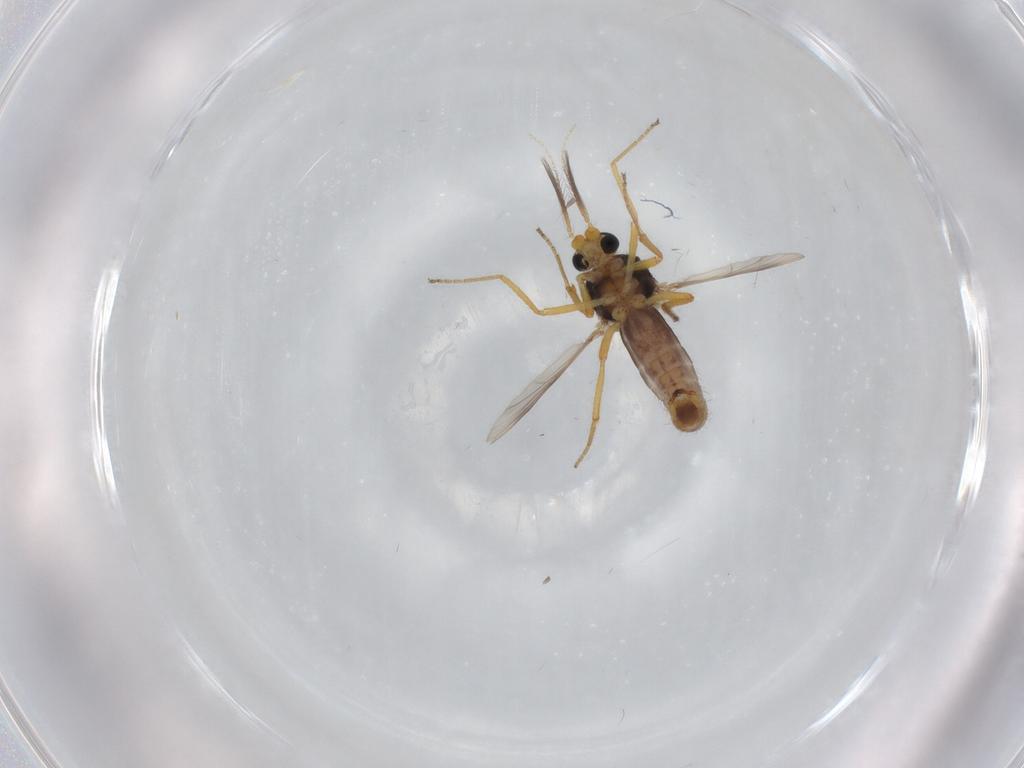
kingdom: Animalia
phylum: Arthropoda
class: Insecta
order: Diptera
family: Ceratopogonidae
